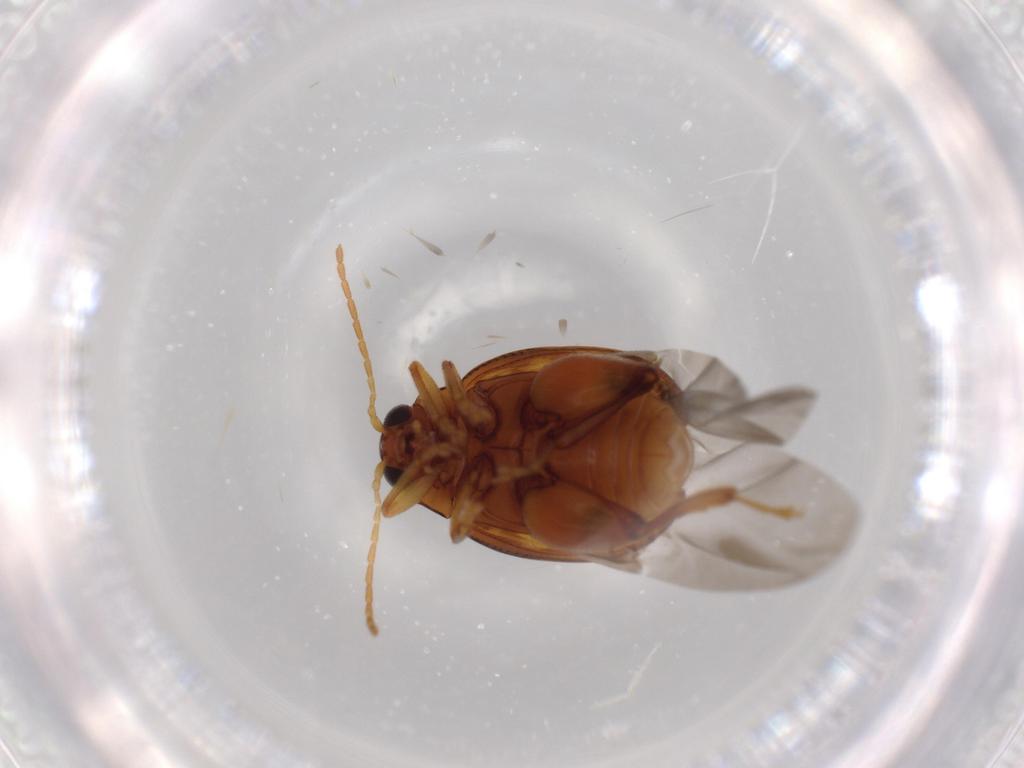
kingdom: Animalia
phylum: Arthropoda
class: Insecta
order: Coleoptera
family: Chrysomelidae
